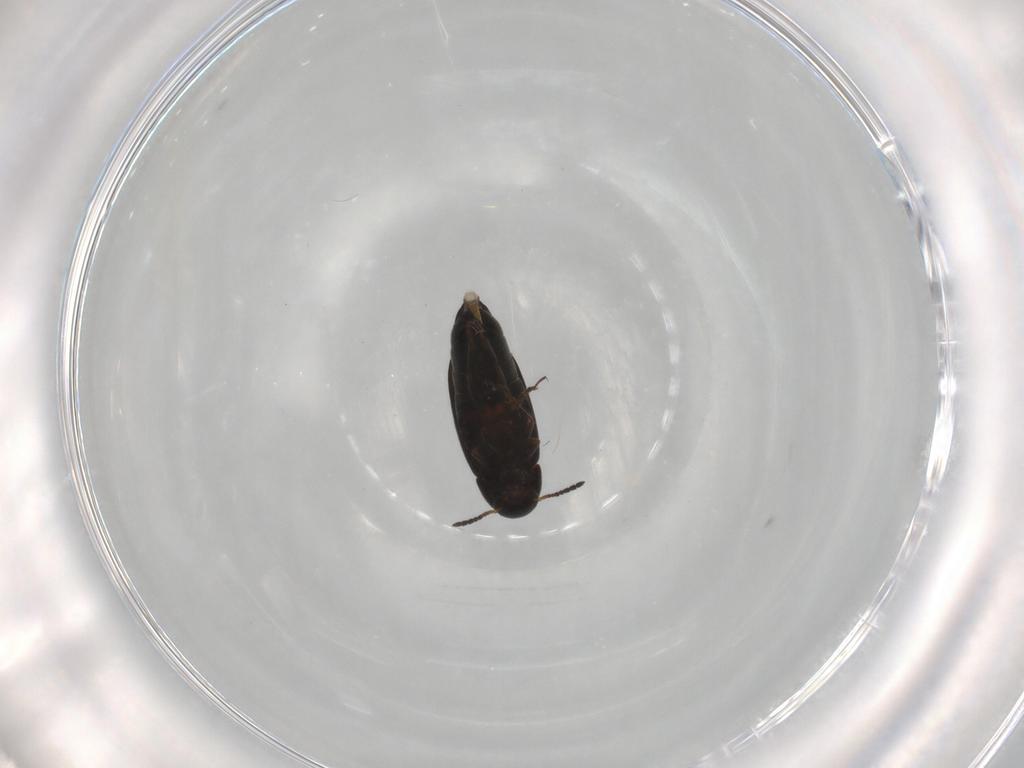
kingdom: Animalia
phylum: Arthropoda
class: Insecta
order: Coleoptera
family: Scraptiidae
